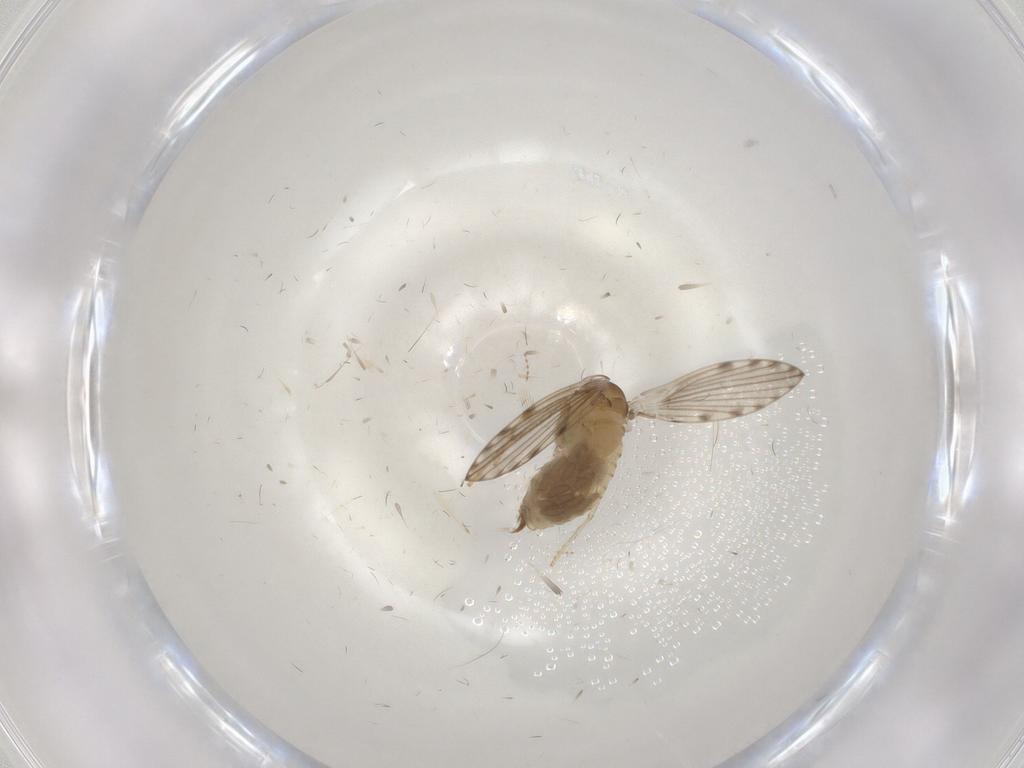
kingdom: Animalia
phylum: Arthropoda
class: Insecta
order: Diptera
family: Psychodidae
